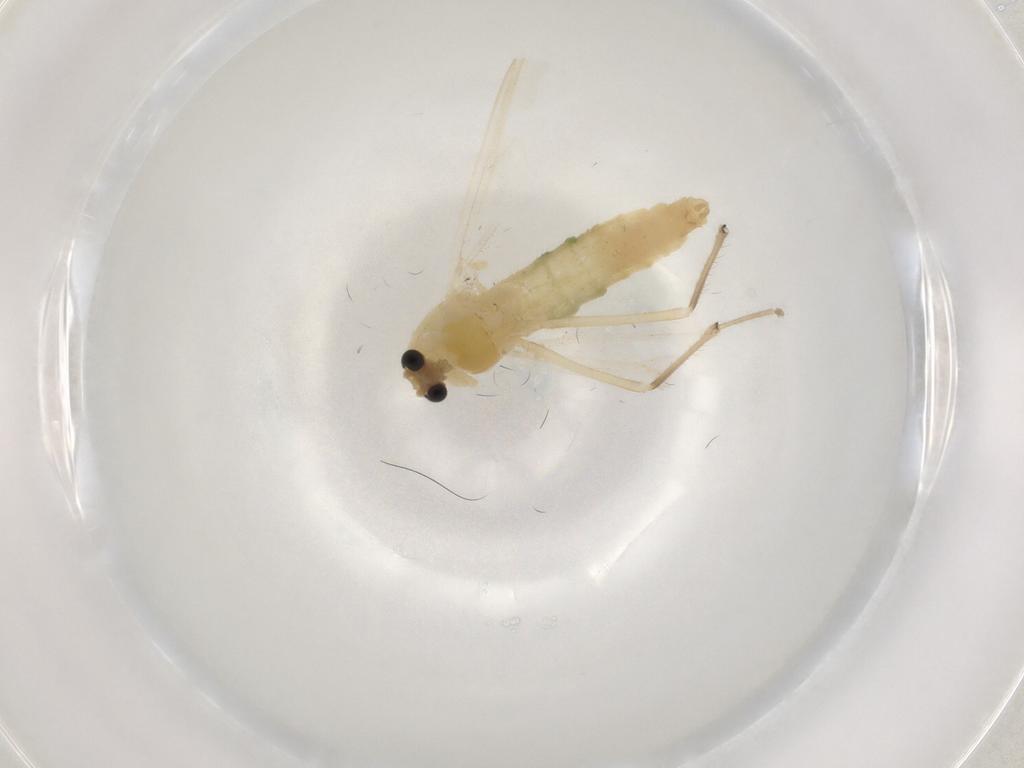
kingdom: Animalia
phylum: Arthropoda
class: Insecta
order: Diptera
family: Chironomidae
